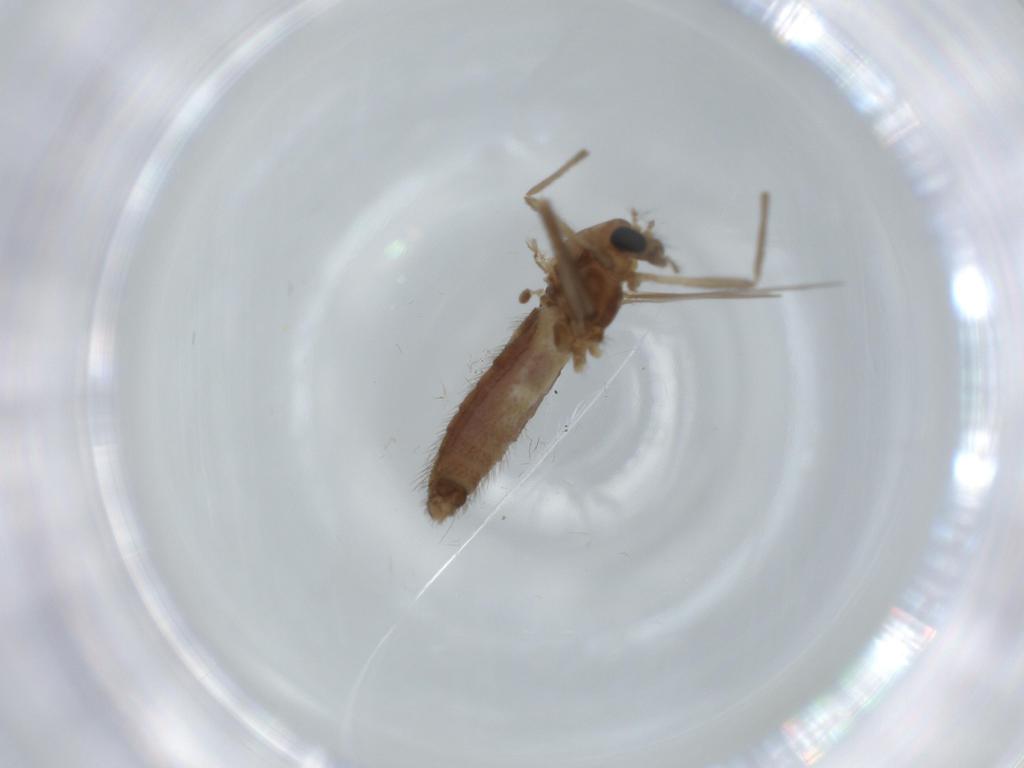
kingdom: Animalia
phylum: Arthropoda
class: Insecta
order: Diptera
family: Chironomidae
